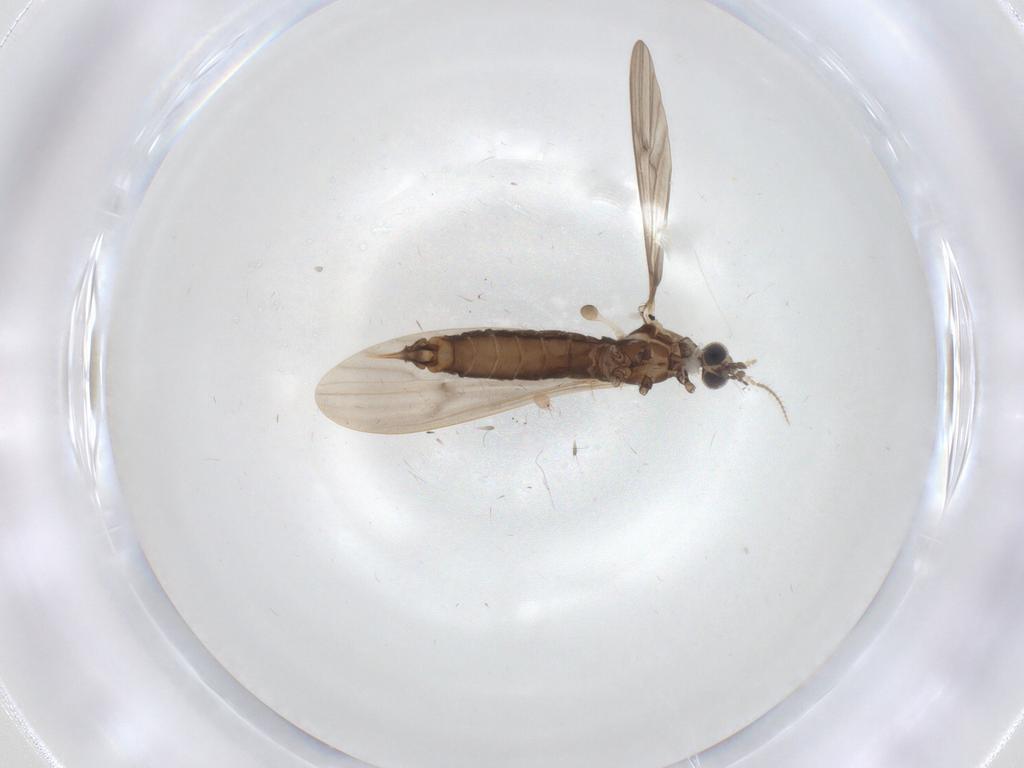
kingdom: Animalia
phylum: Arthropoda
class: Insecta
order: Diptera
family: Limoniidae
